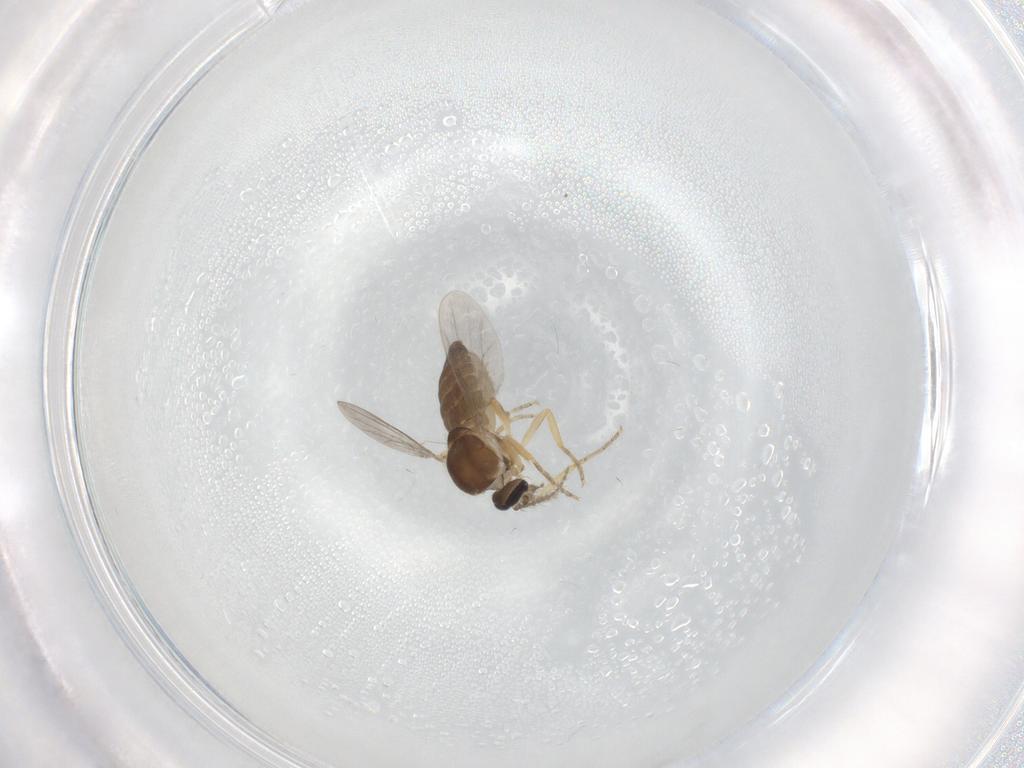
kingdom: Animalia
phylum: Arthropoda
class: Insecta
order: Diptera
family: Ceratopogonidae
